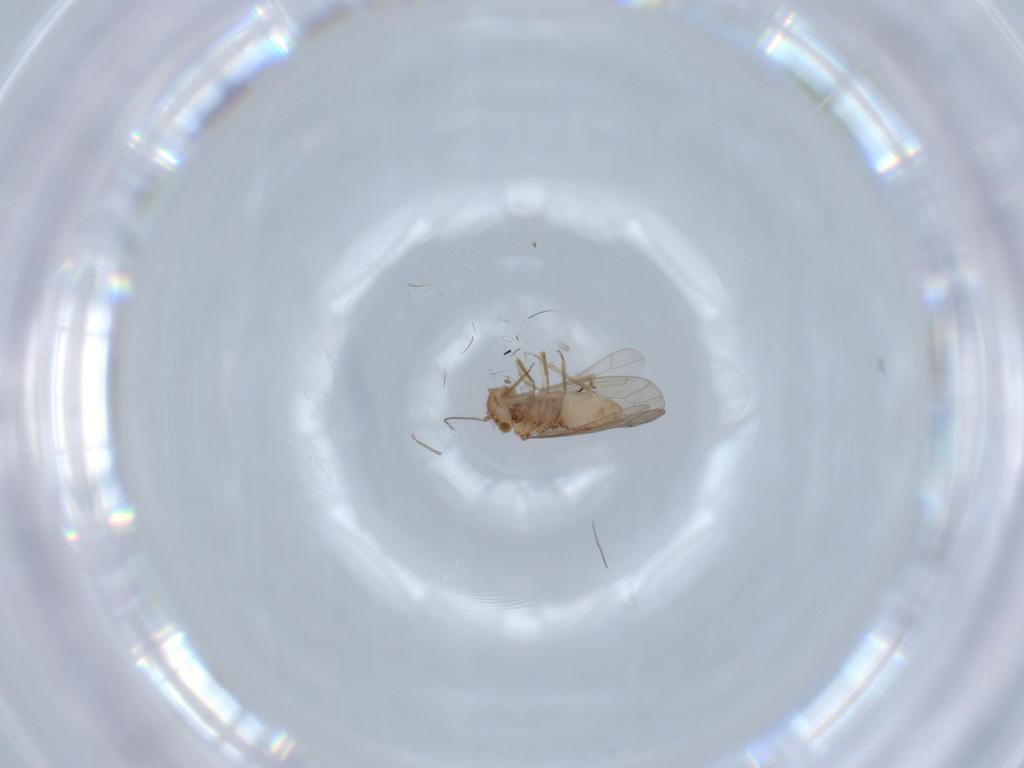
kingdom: Animalia
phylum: Arthropoda
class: Insecta
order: Psocodea
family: Ectopsocidae
